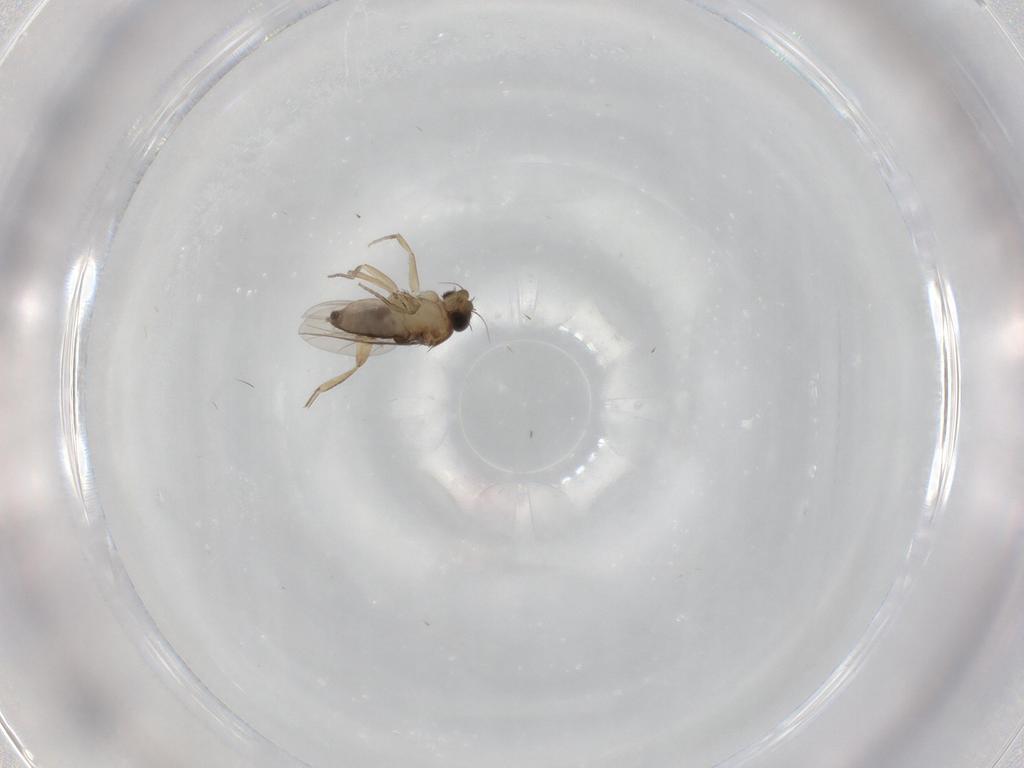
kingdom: Animalia
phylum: Arthropoda
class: Insecta
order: Diptera
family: Phoridae
